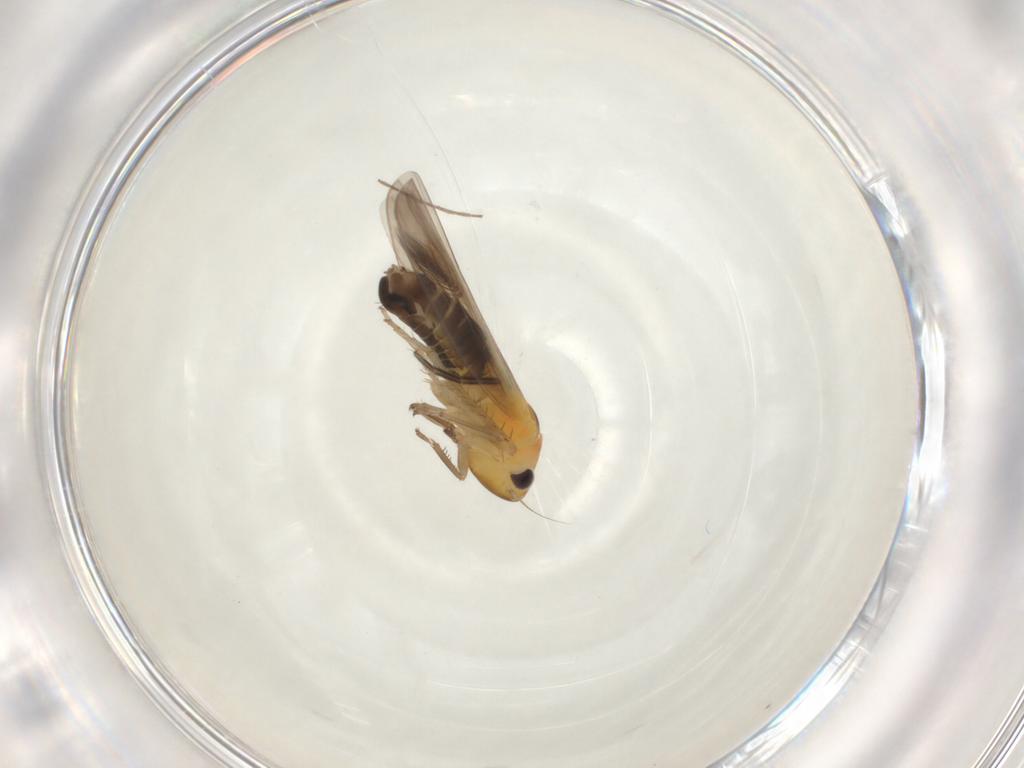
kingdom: Animalia
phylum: Arthropoda
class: Insecta
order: Hemiptera
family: Cicadellidae
